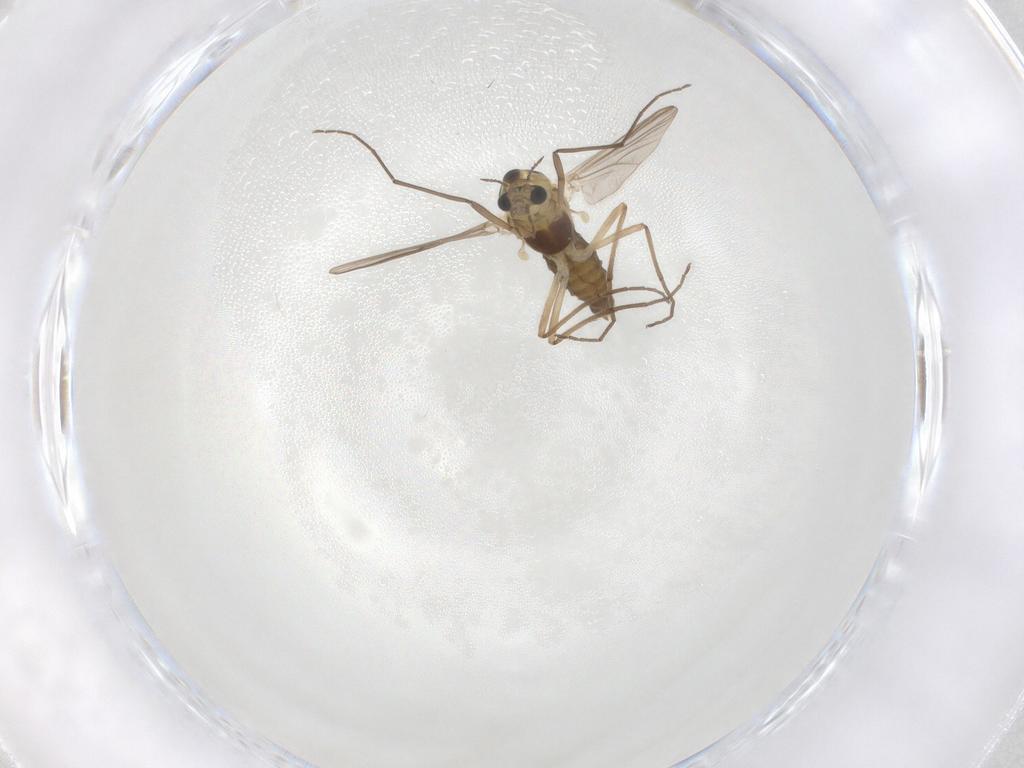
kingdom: Animalia
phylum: Arthropoda
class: Insecta
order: Diptera
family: Chironomidae
